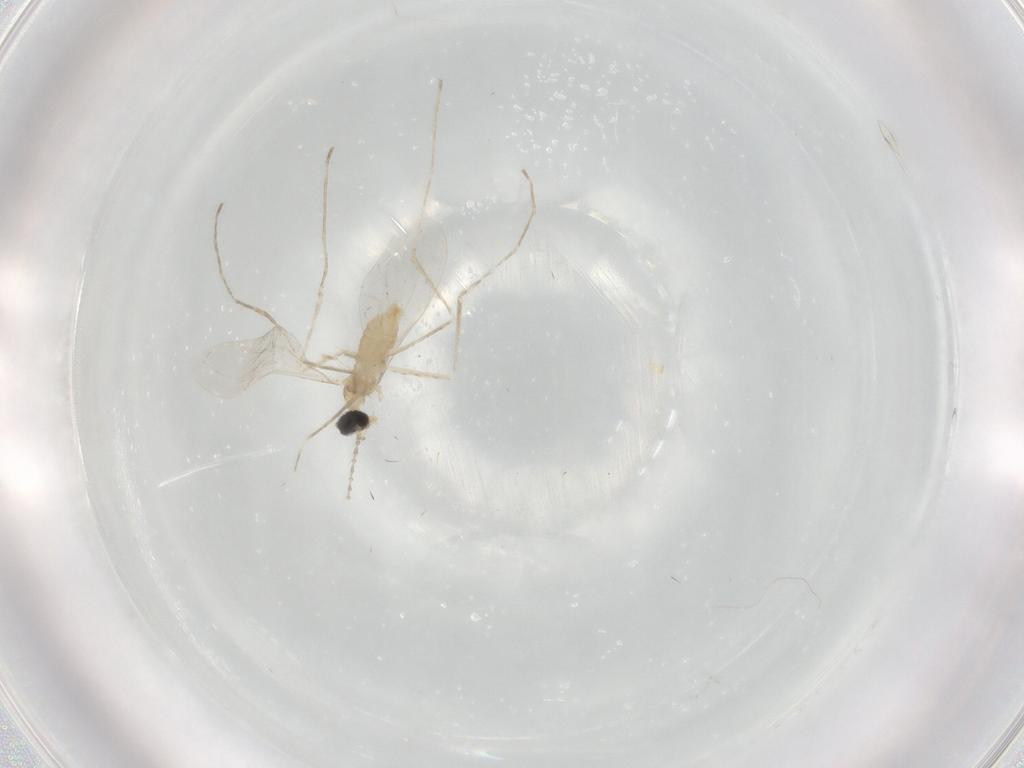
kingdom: Animalia
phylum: Arthropoda
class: Insecta
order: Diptera
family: Cecidomyiidae
